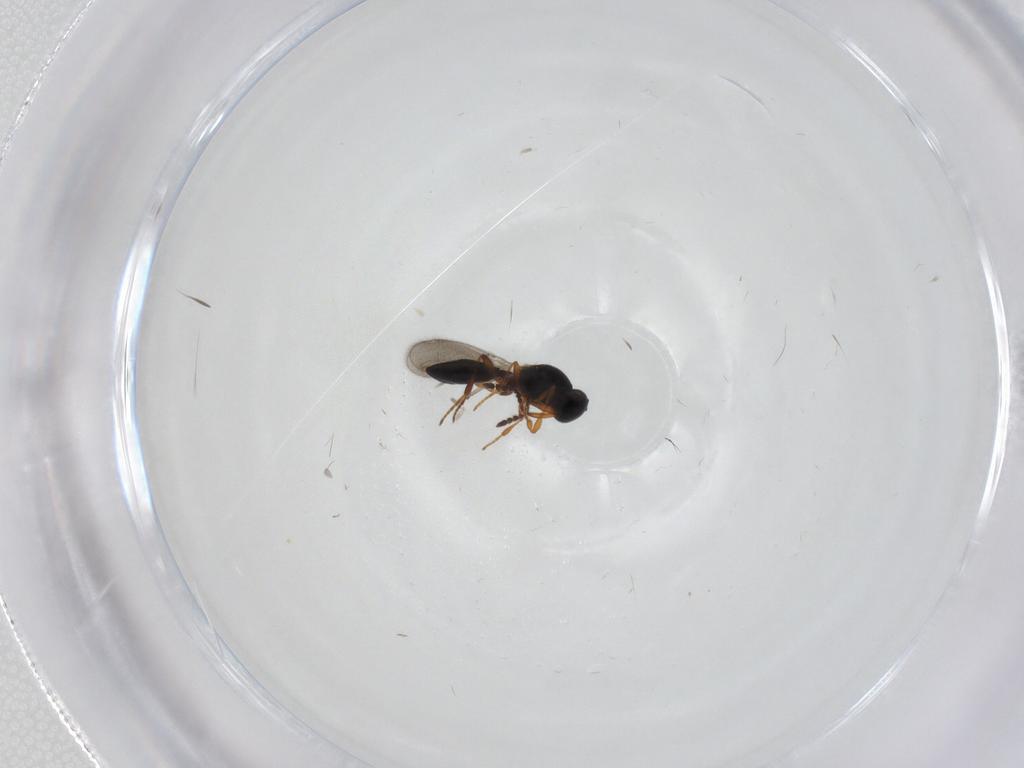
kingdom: Animalia
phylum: Arthropoda
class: Insecta
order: Hymenoptera
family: Platygastridae
